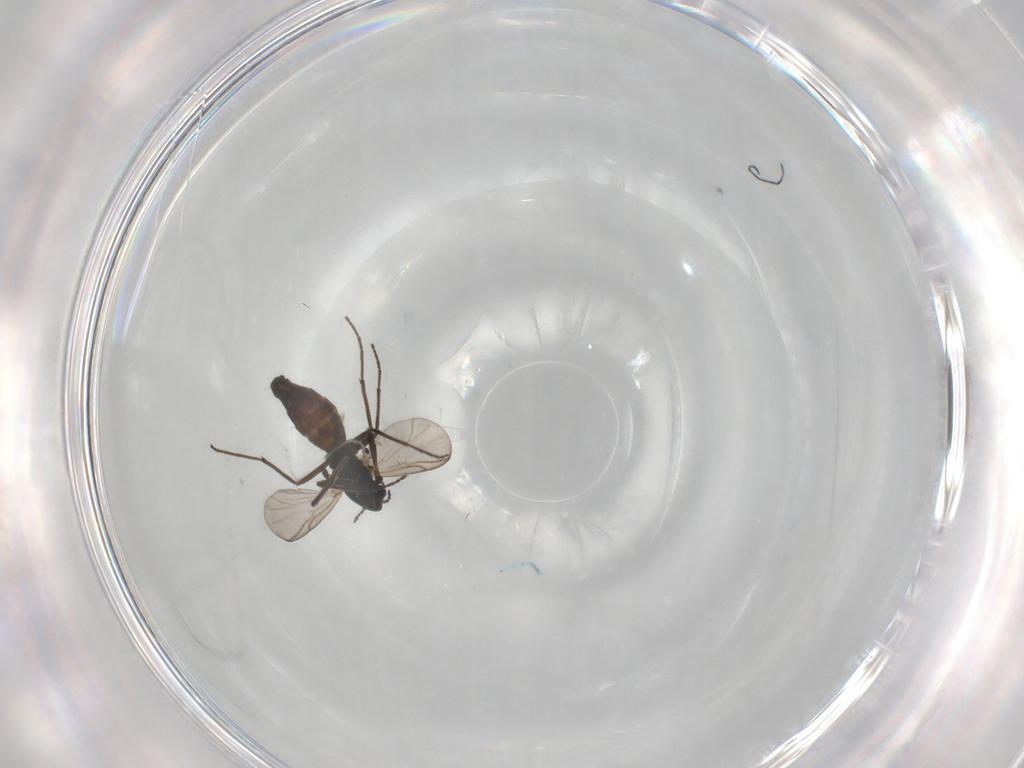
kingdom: Animalia
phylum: Arthropoda
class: Insecta
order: Diptera
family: Chironomidae
